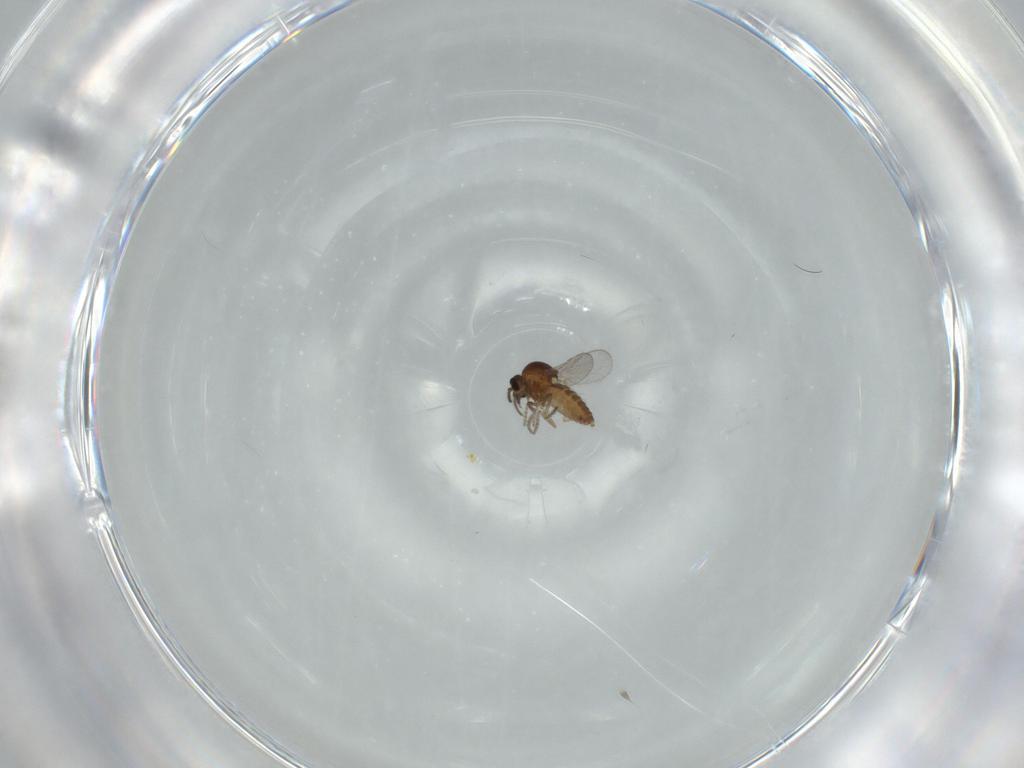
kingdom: Animalia
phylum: Arthropoda
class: Insecta
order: Diptera
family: Ceratopogonidae
